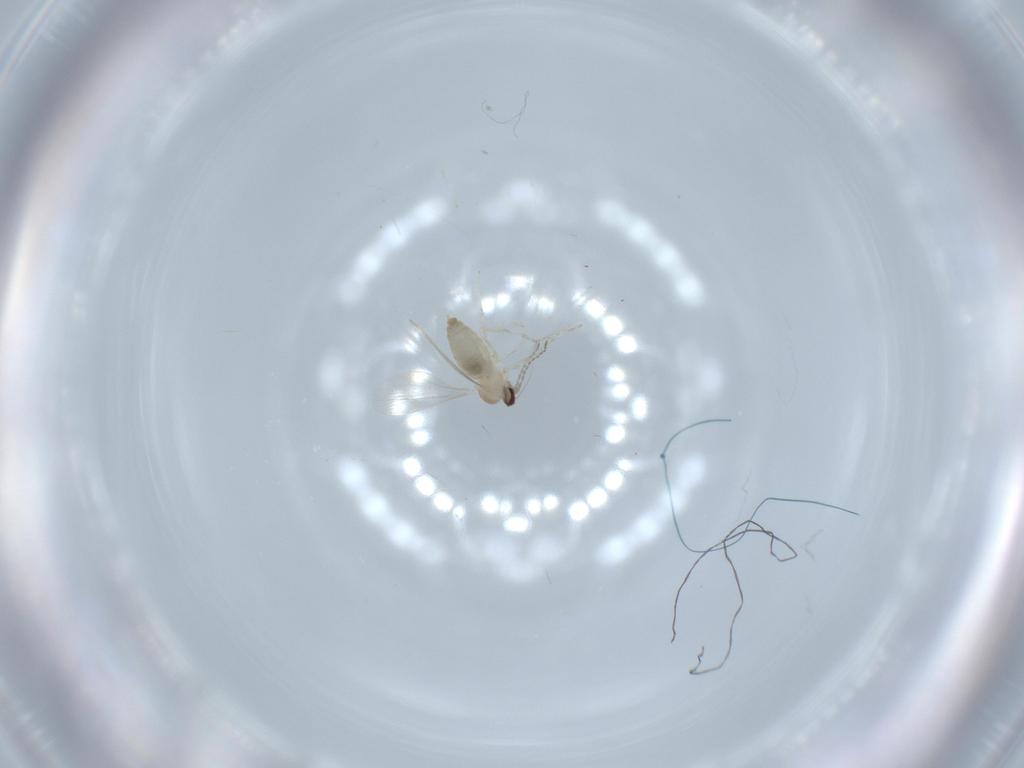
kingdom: Animalia
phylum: Arthropoda
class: Insecta
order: Diptera
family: Cecidomyiidae
